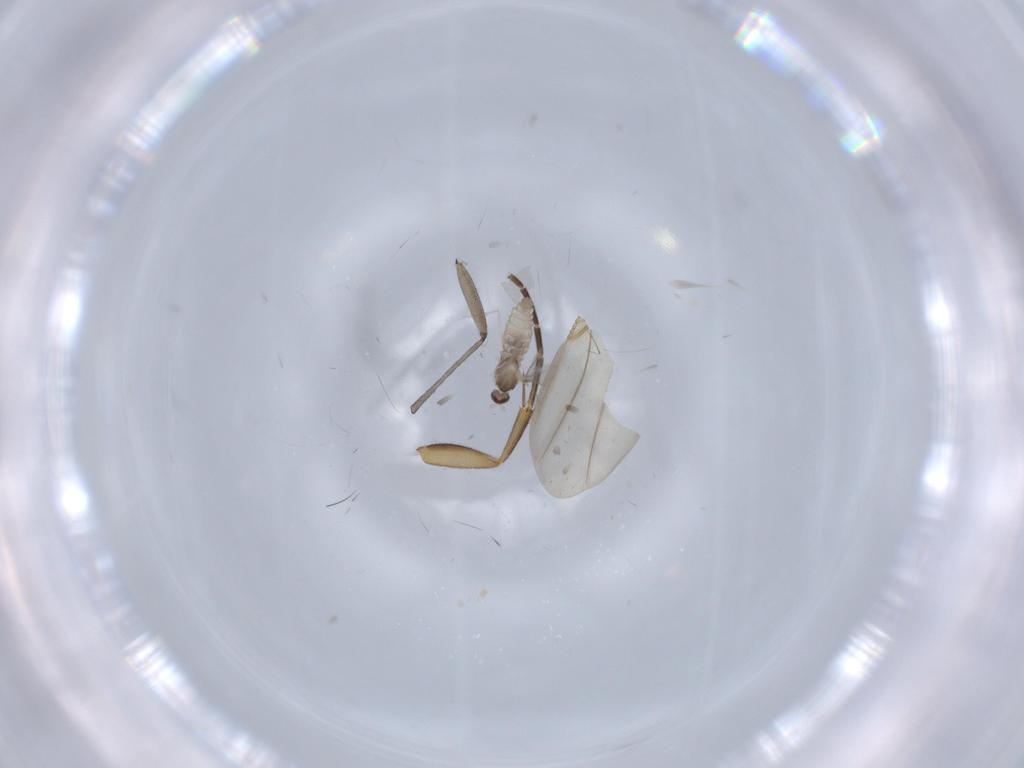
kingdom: Animalia
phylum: Arthropoda
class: Insecta
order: Diptera
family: Sciaridae
